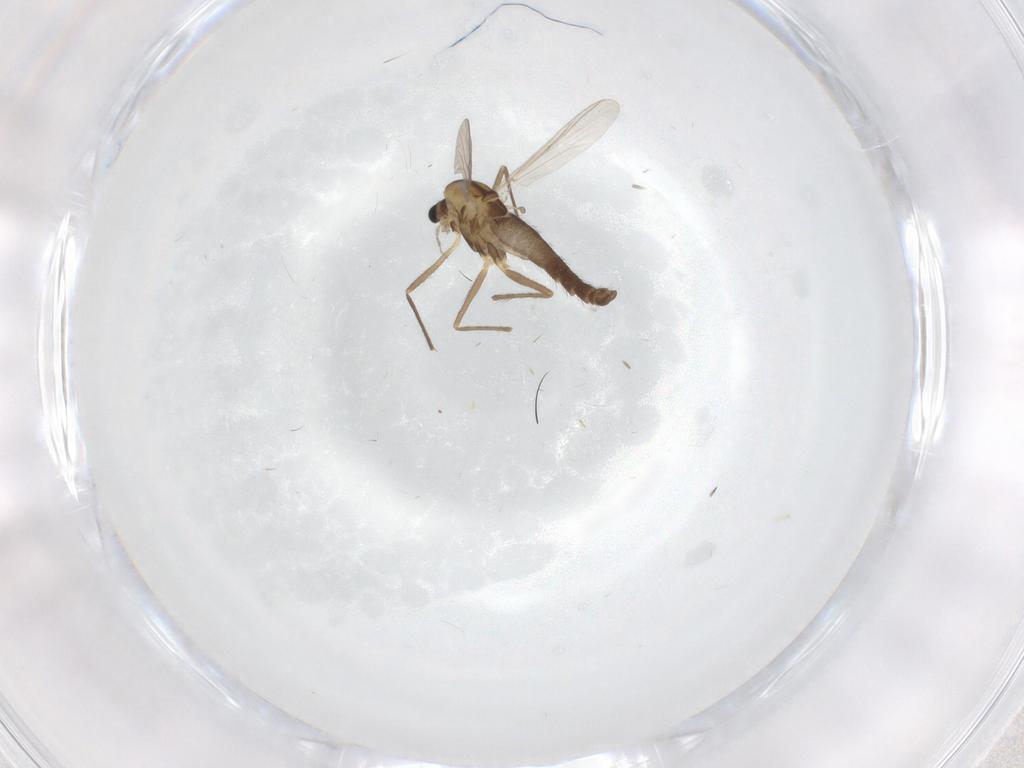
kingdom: Animalia
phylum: Arthropoda
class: Insecta
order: Diptera
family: Chironomidae
